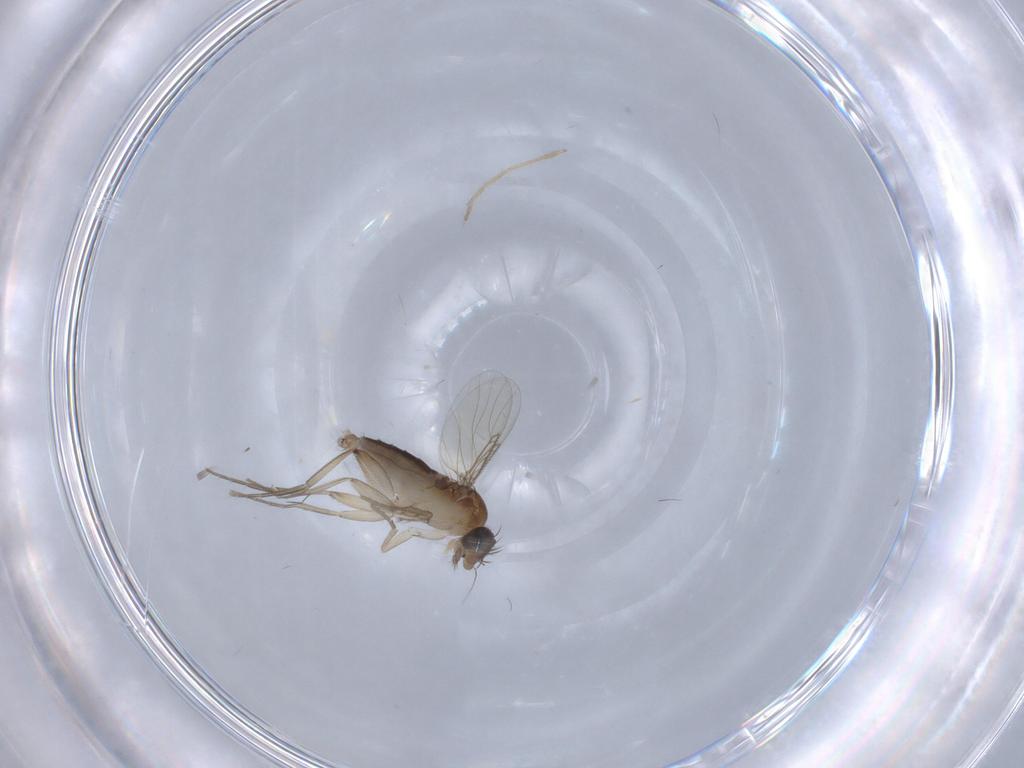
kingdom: Animalia
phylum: Arthropoda
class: Insecta
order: Diptera
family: Phoridae
